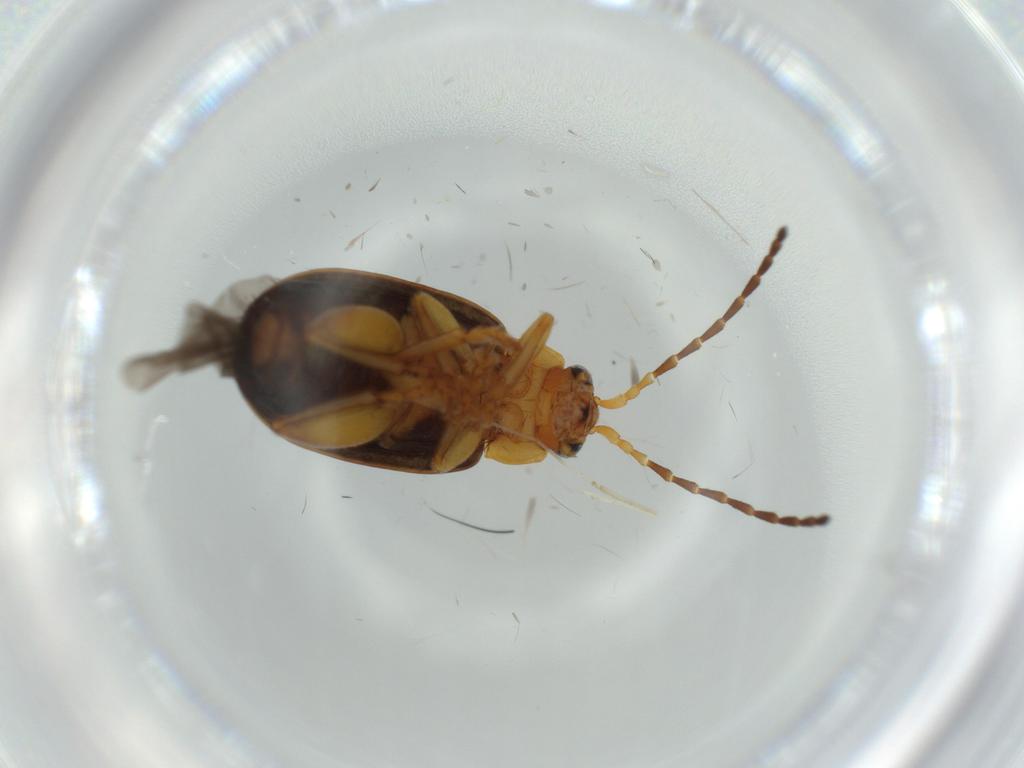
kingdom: Animalia
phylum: Arthropoda
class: Insecta
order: Coleoptera
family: Chrysomelidae
